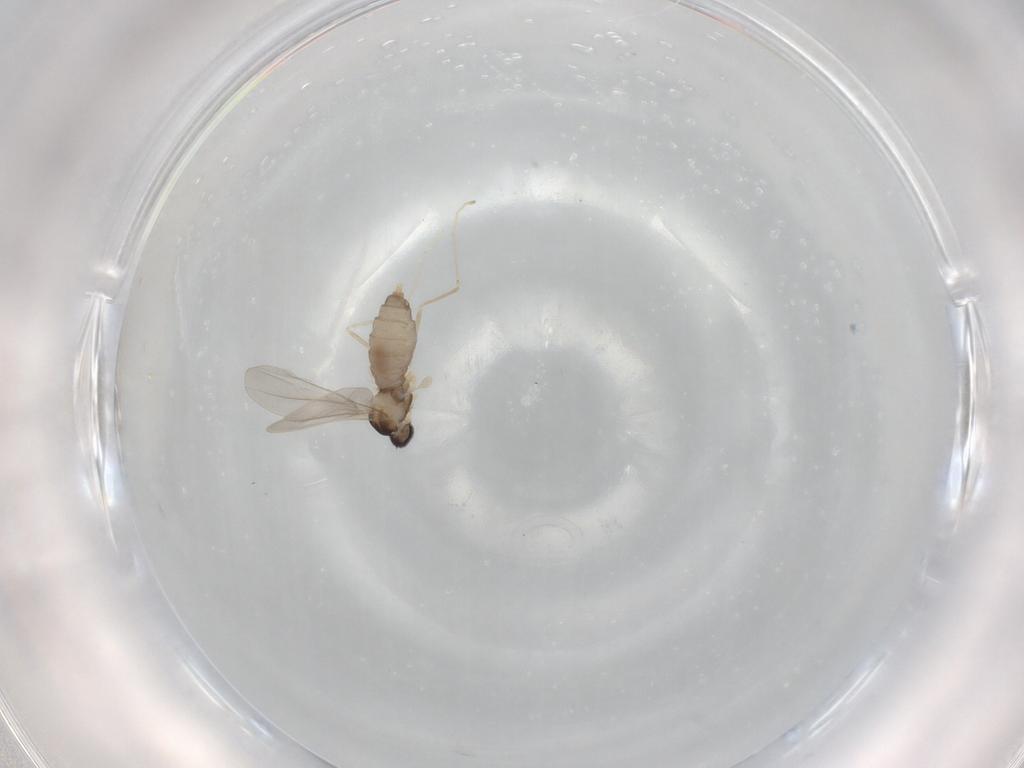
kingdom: Animalia
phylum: Arthropoda
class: Insecta
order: Diptera
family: Cecidomyiidae
